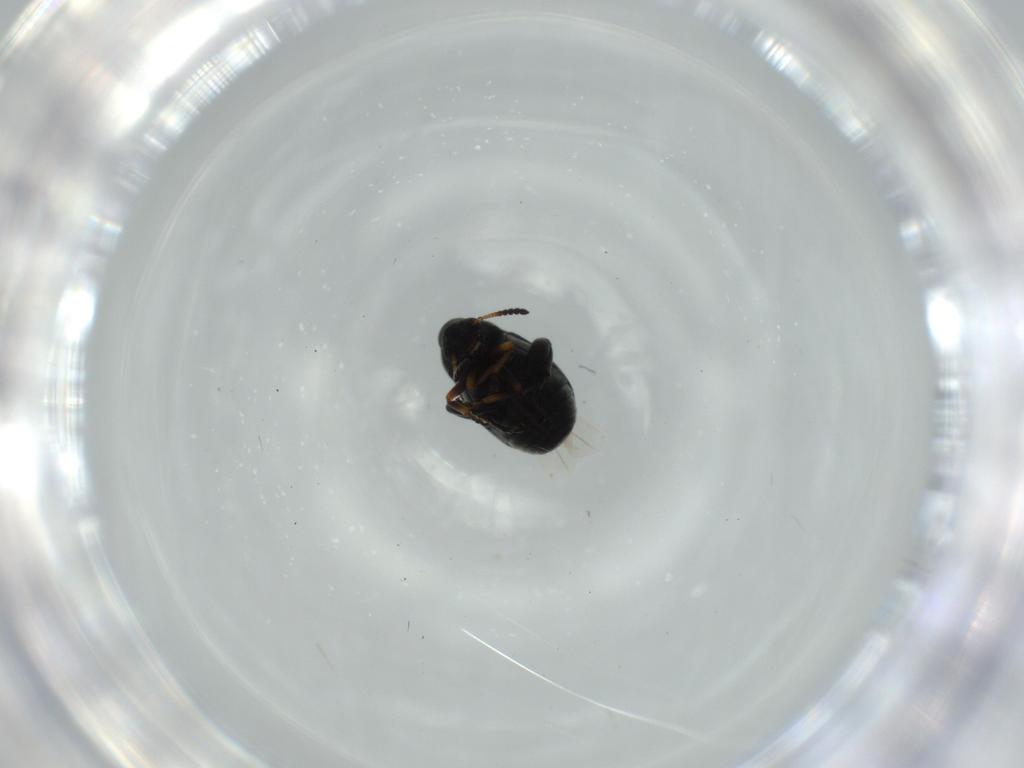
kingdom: Animalia
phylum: Arthropoda
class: Insecta
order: Coleoptera
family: Chrysomelidae
